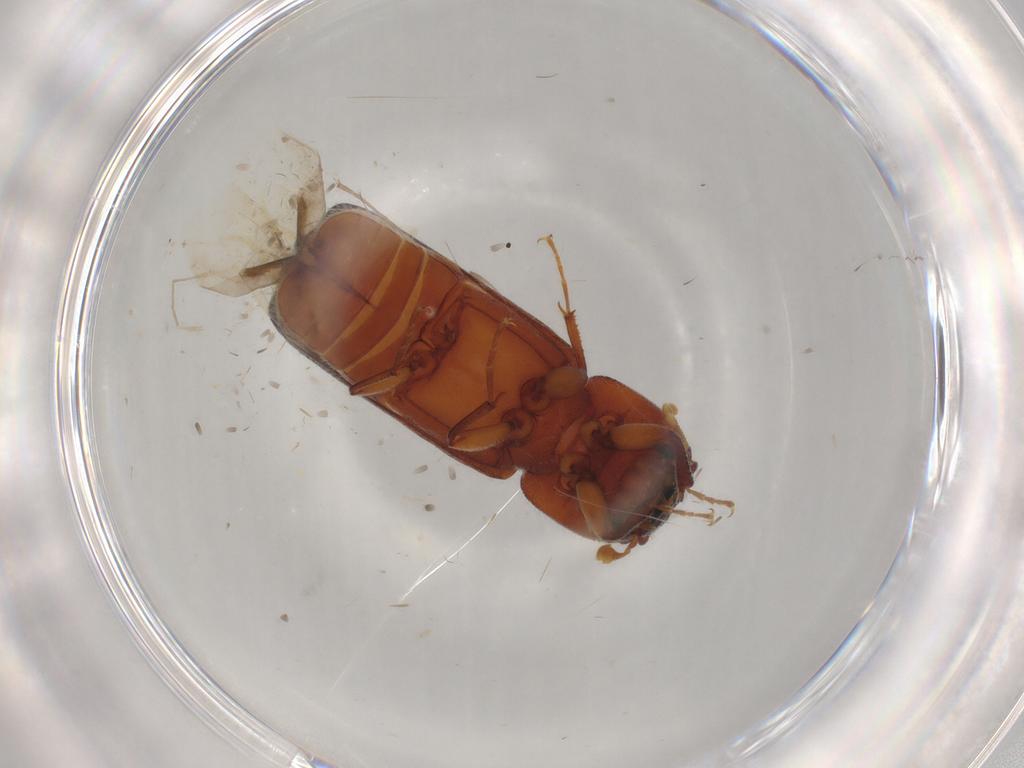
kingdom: Animalia
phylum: Arthropoda
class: Insecta
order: Coleoptera
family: Bostrichidae
